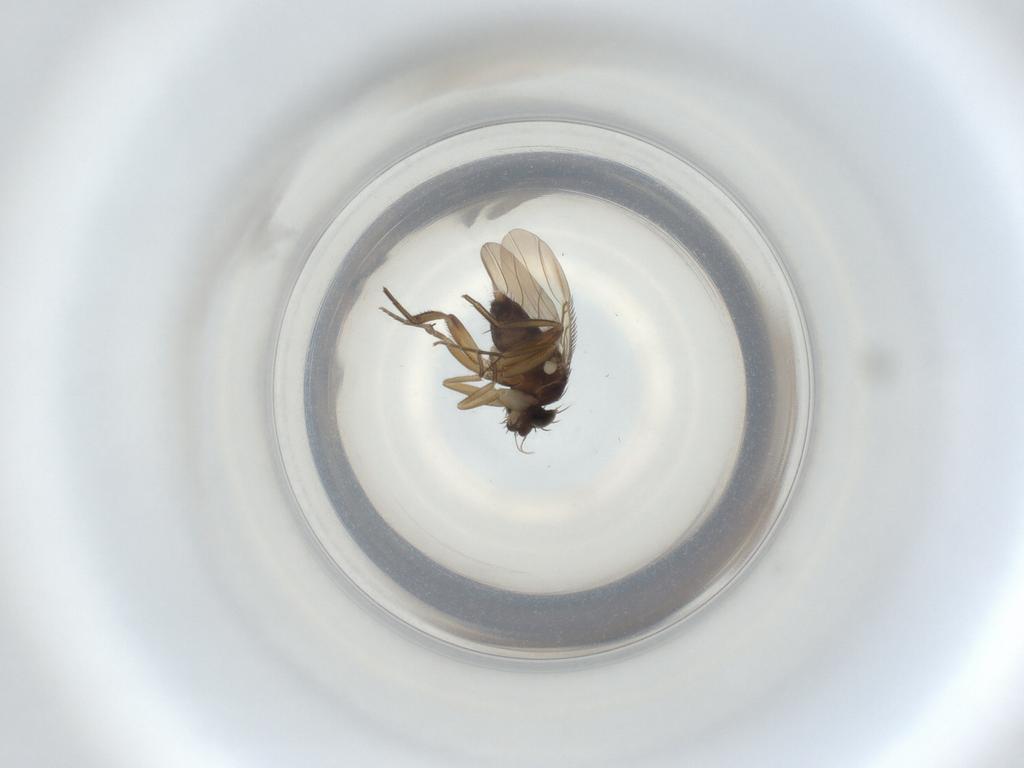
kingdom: Animalia
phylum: Arthropoda
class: Insecta
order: Diptera
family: Phoridae
